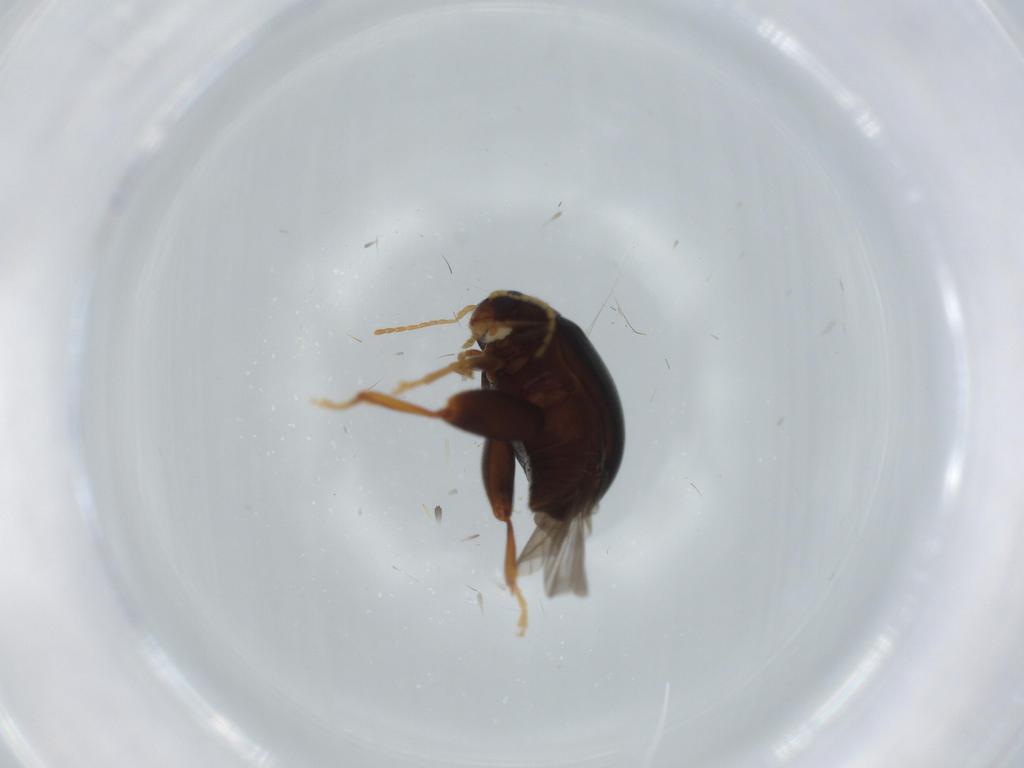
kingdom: Animalia
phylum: Arthropoda
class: Insecta
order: Coleoptera
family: Chrysomelidae
